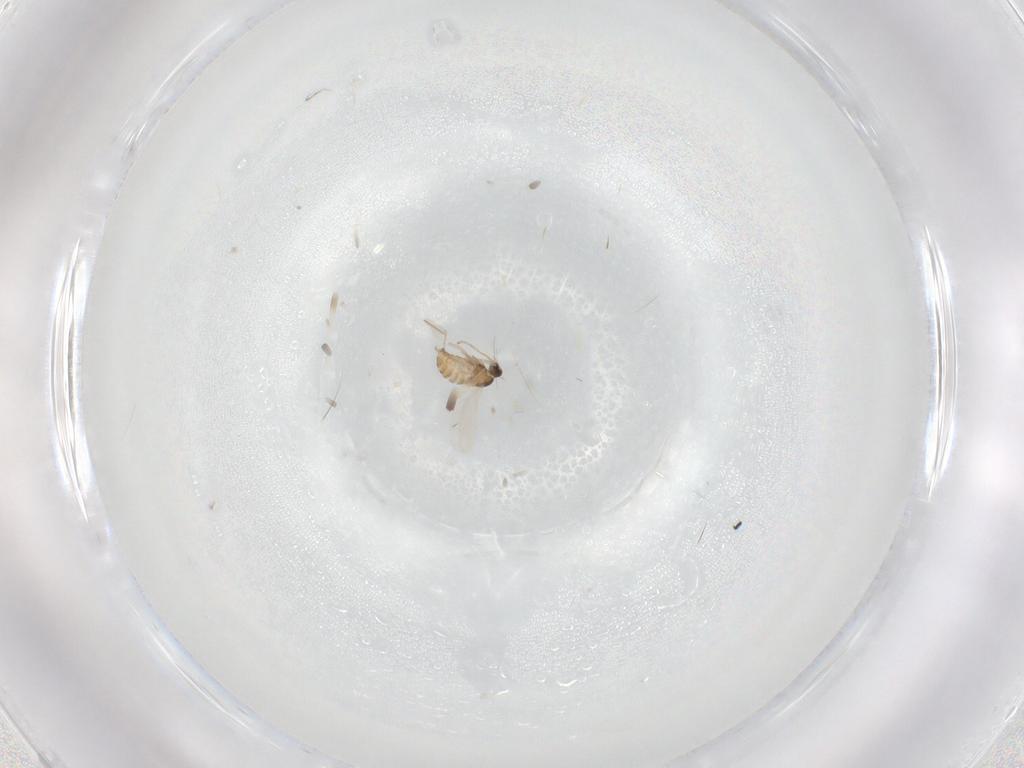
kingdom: Animalia
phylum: Arthropoda
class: Insecta
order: Diptera
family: Cecidomyiidae
